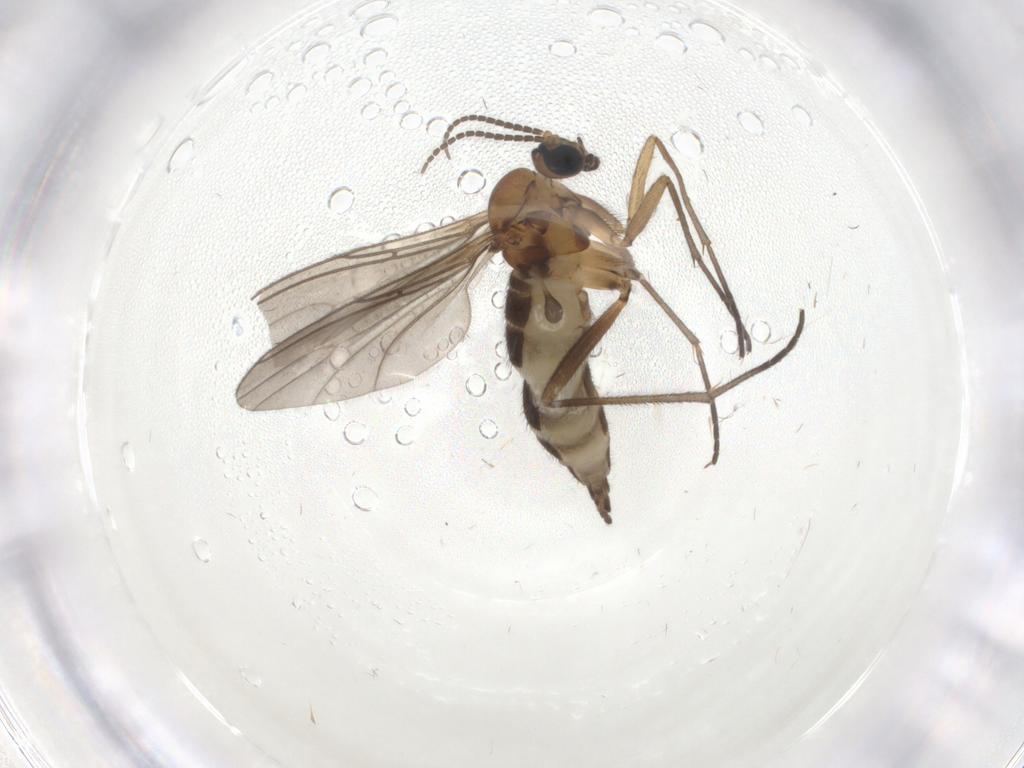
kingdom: Animalia
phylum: Arthropoda
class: Insecta
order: Diptera
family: Sciaridae
